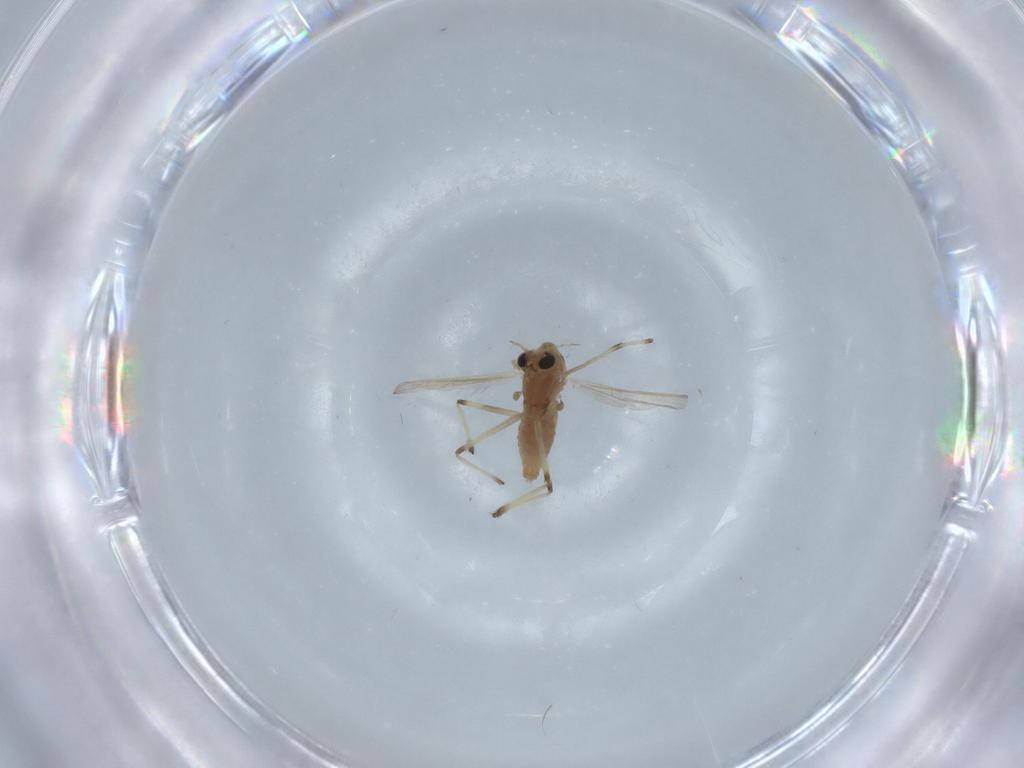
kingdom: Animalia
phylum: Arthropoda
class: Insecta
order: Diptera
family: Chironomidae
